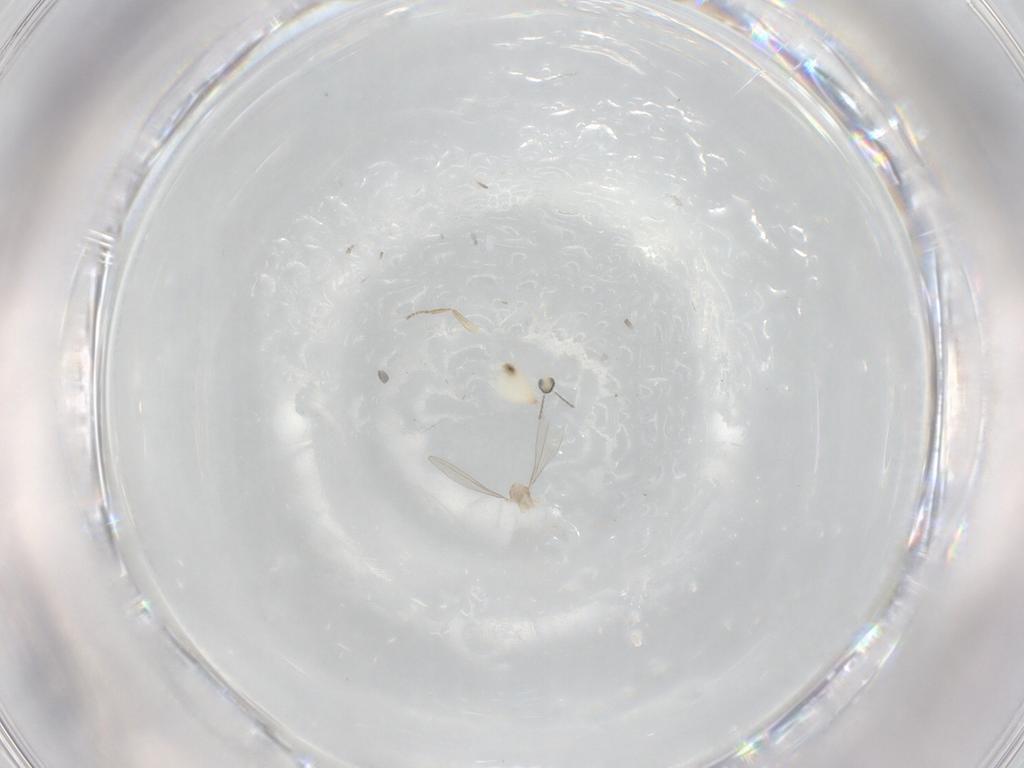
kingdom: Animalia
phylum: Arthropoda
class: Insecta
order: Diptera
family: Cecidomyiidae
